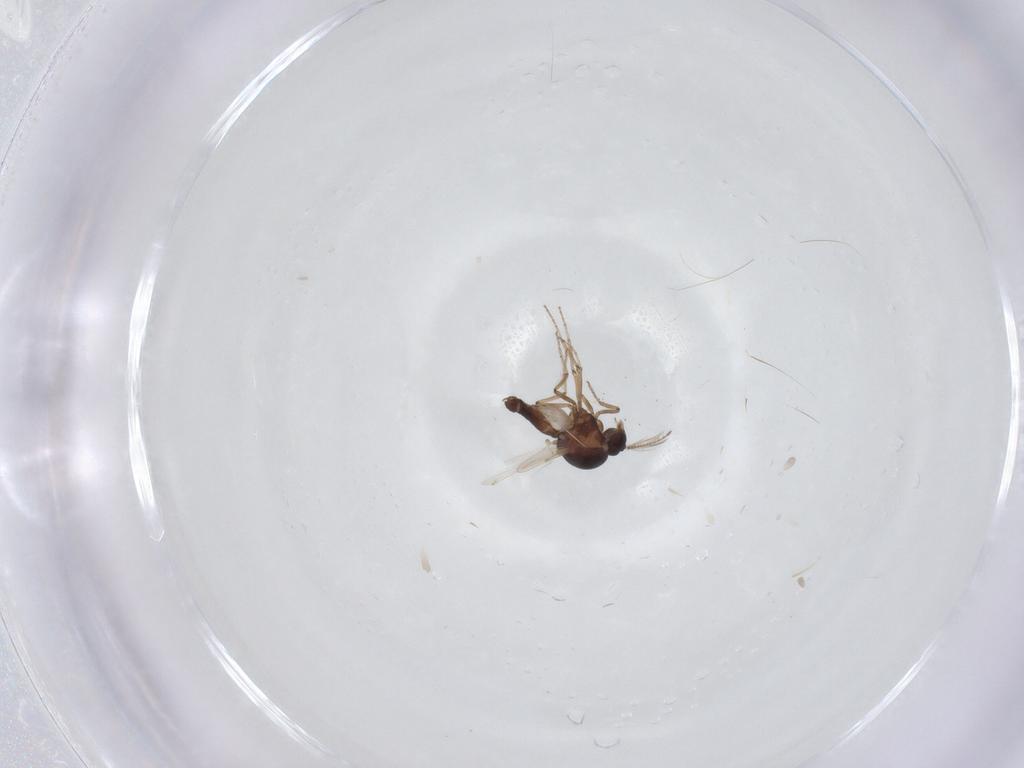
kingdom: Animalia
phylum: Arthropoda
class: Insecta
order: Diptera
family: Ceratopogonidae
